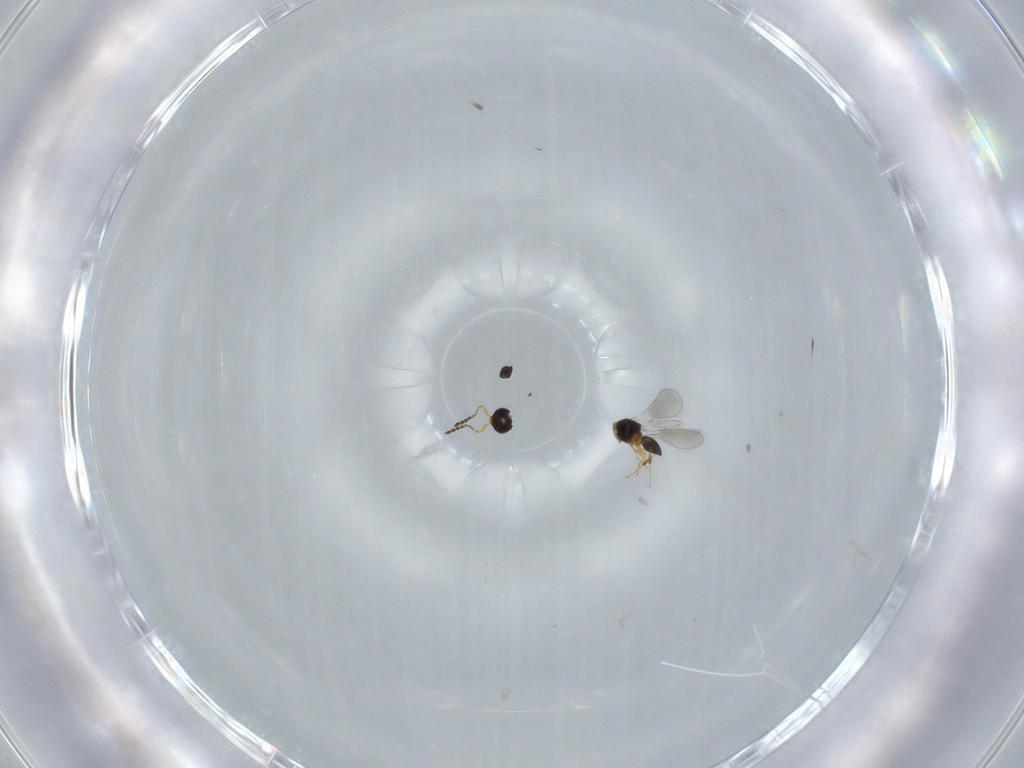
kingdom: Animalia
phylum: Arthropoda
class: Insecta
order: Hymenoptera
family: Platygastridae
